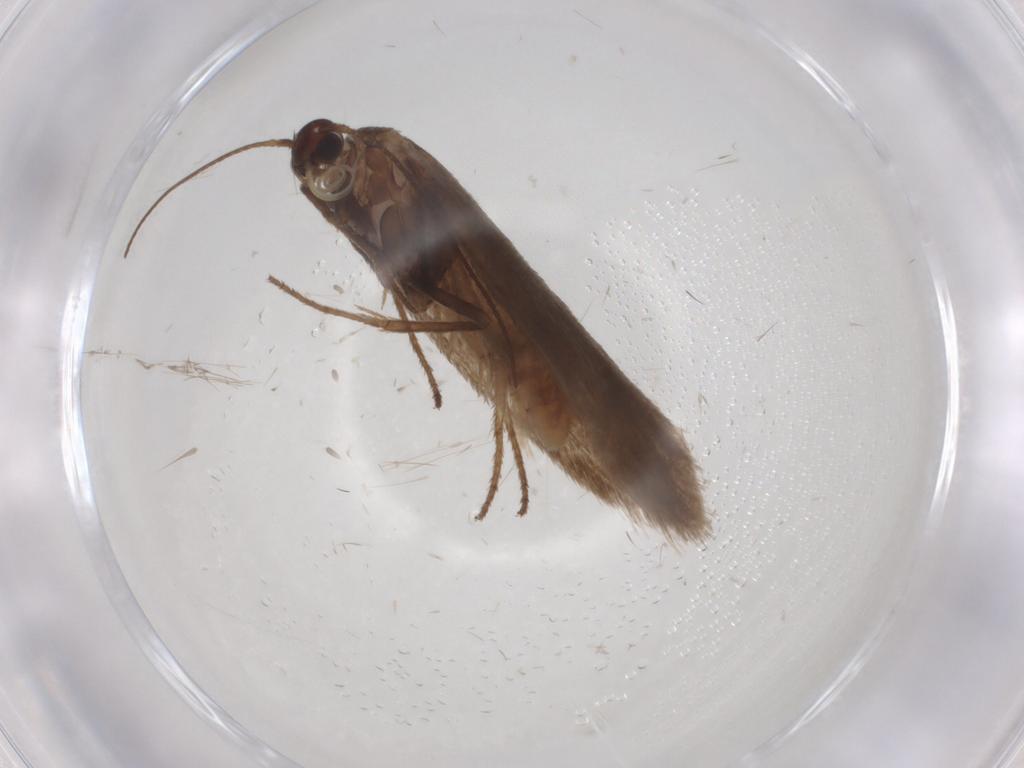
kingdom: Animalia
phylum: Arthropoda
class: Insecta
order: Lepidoptera
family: Limacodidae
